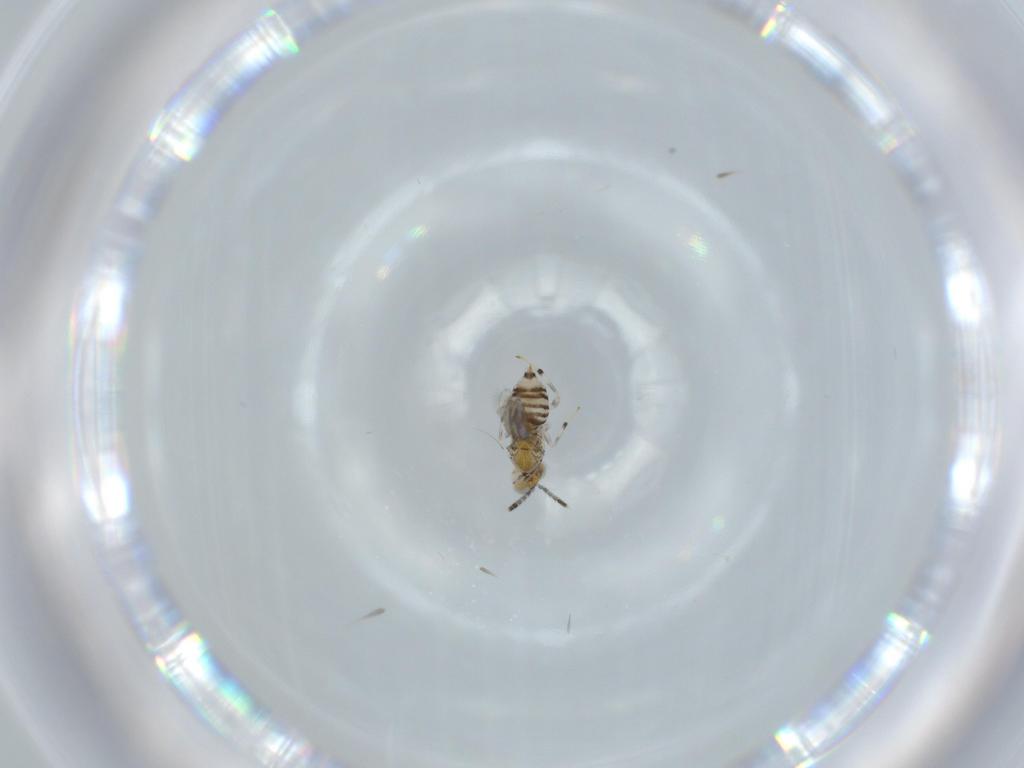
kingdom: Animalia
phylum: Arthropoda
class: Insecta
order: Hymenoptera
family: Aphelinidae
